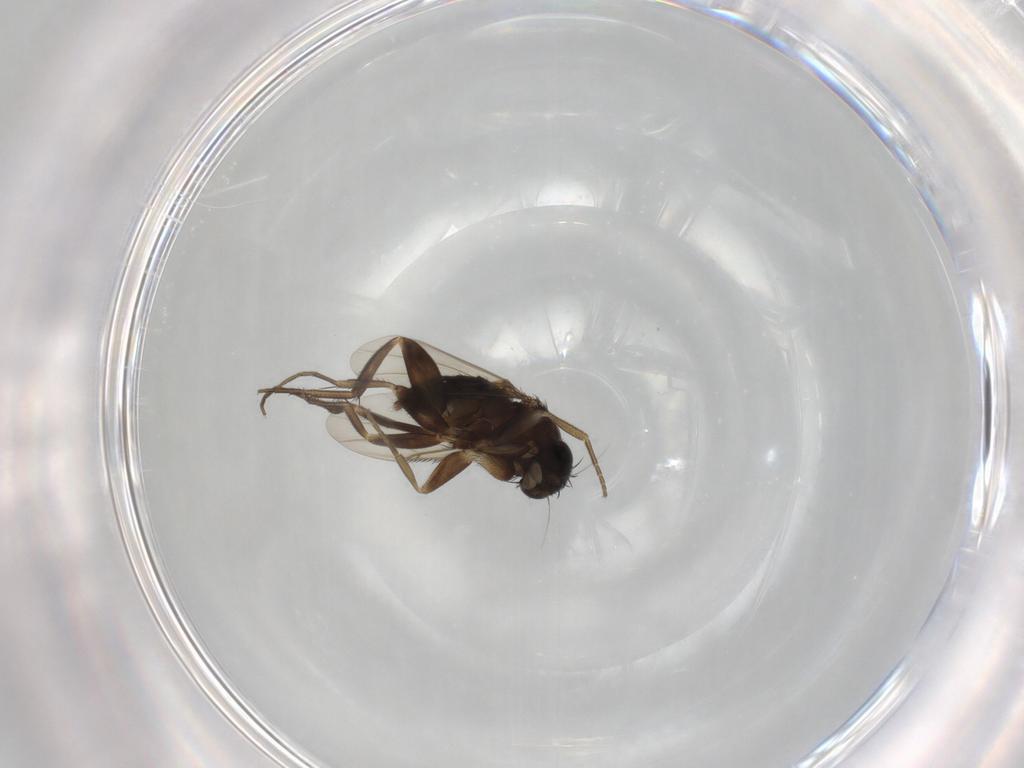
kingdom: Animalia
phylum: Arthropoda
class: Insecta
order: Diptera
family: Phoridae
